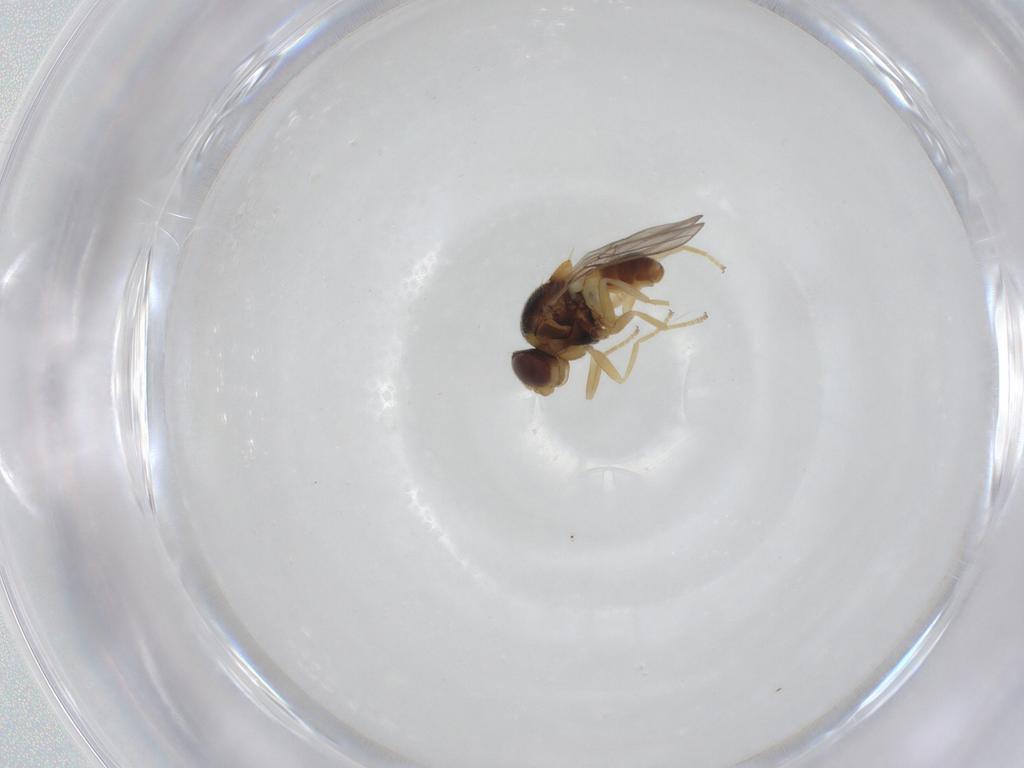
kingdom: Animalia
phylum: Arthropoda
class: Insecta
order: Diptera
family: Chloropidae
